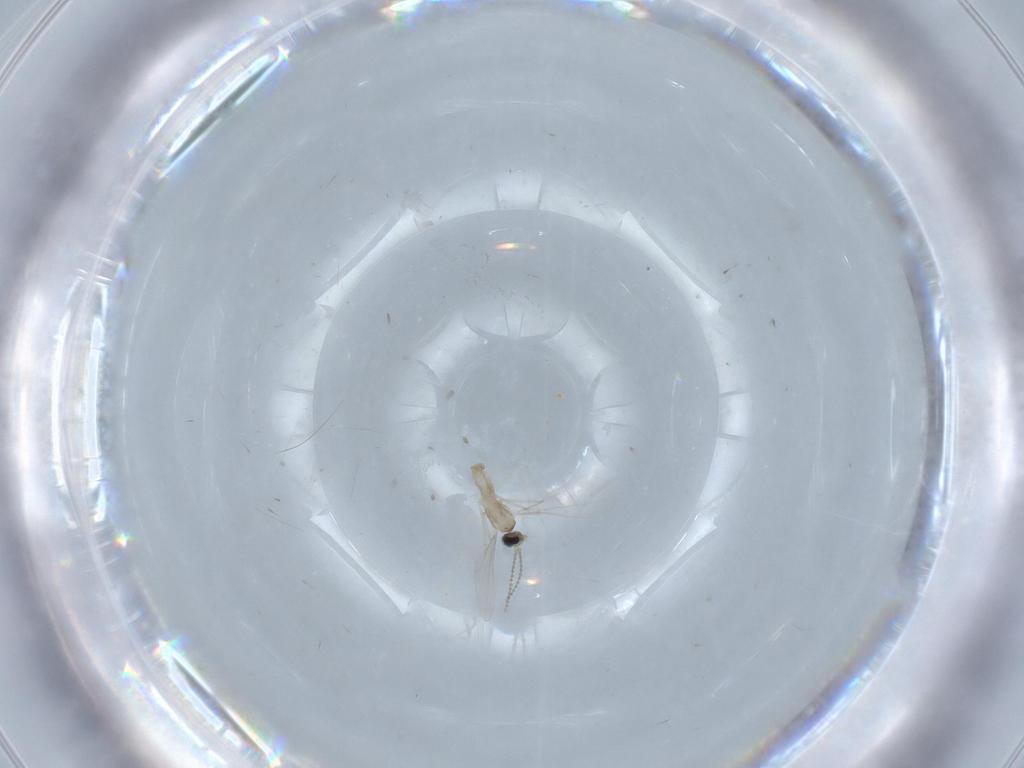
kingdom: Animalia
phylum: Arthropoda
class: Insecta
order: Diptera
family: Cecidomyiidae
